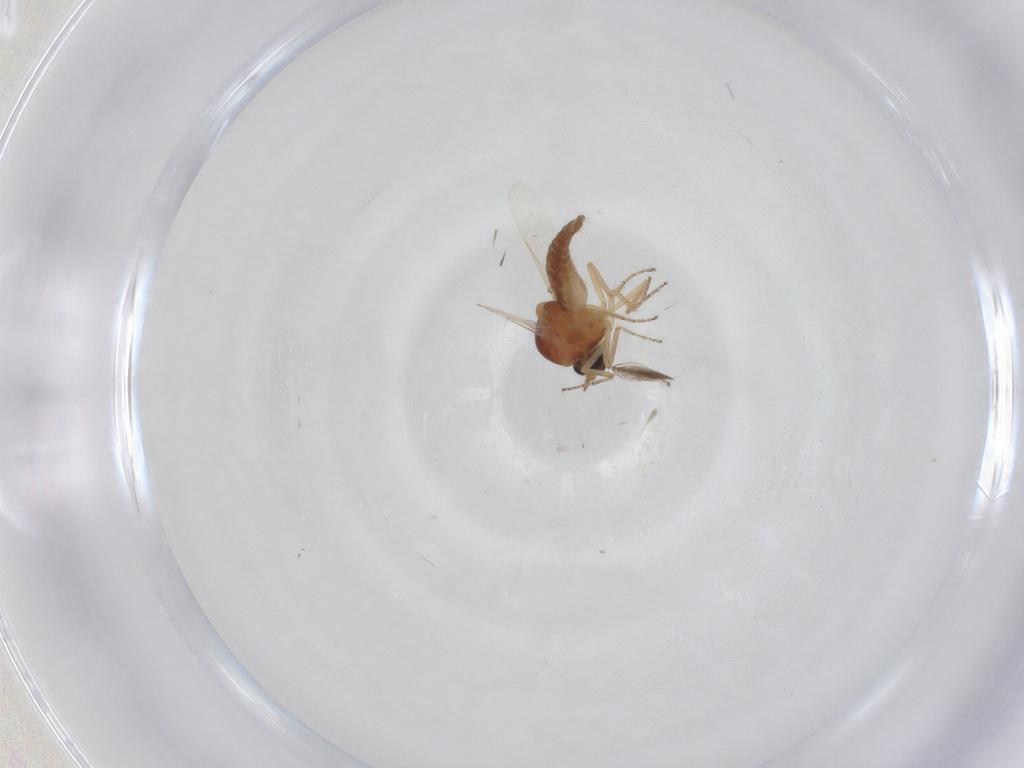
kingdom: Animalia
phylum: Arthropoda
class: Insecta
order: Diptera
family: Ceratopogonidae
